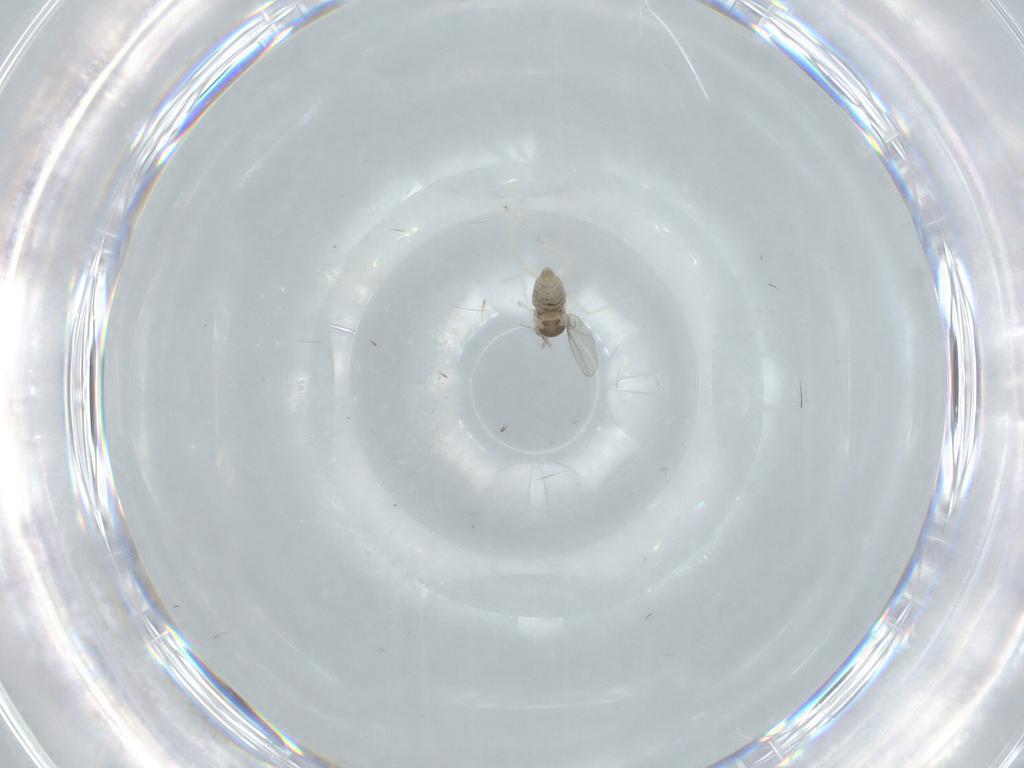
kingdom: Animalia
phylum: Arthropoda
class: Insecta
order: Diptera
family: Cecidomyiidae
